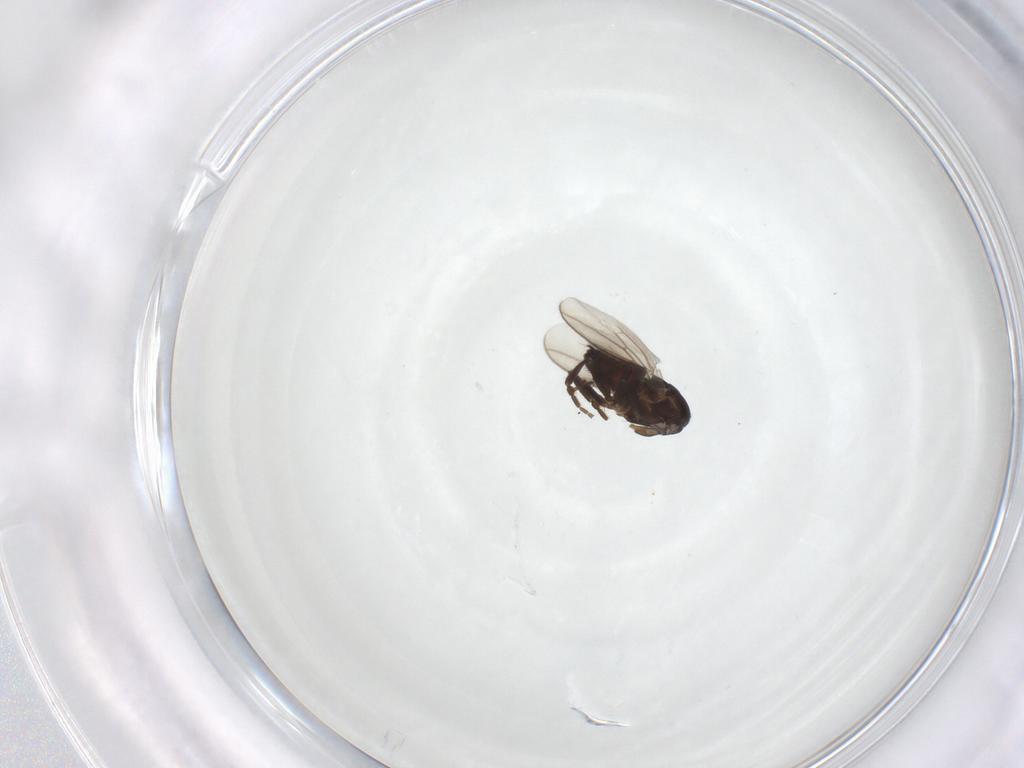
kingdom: Animalia
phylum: Arthropoda
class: Insecta
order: Diptera
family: Sphaeroceridae
